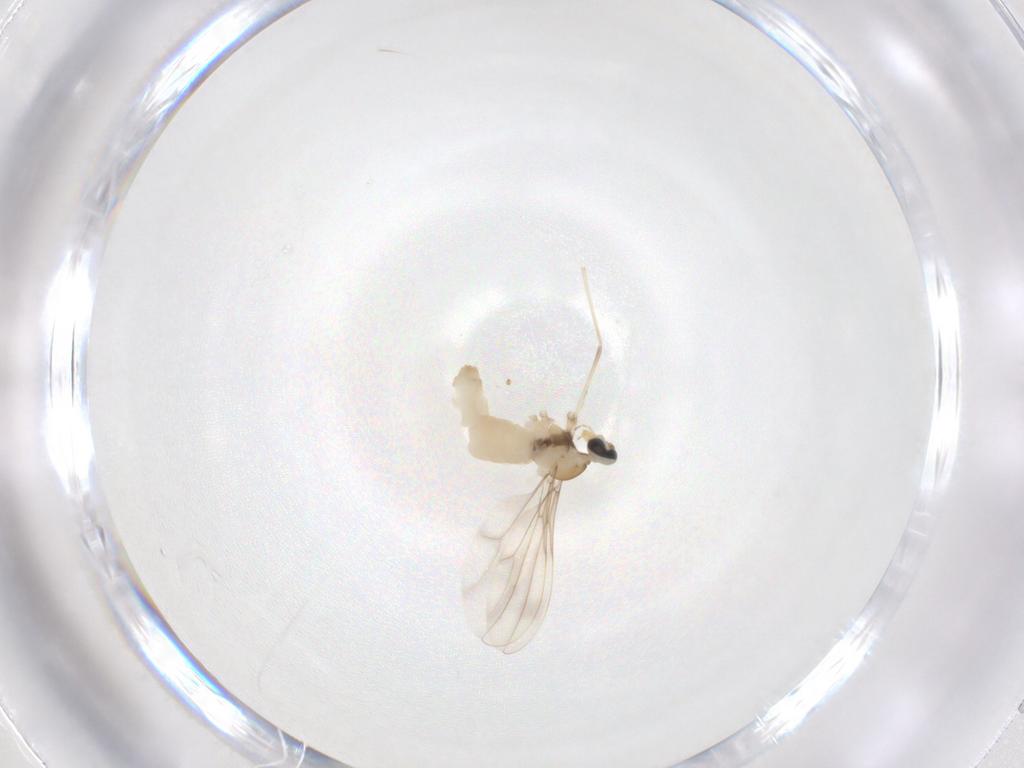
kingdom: Animalia
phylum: Arthropoda
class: Insecta
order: Diptera
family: Cecidomyiidae
